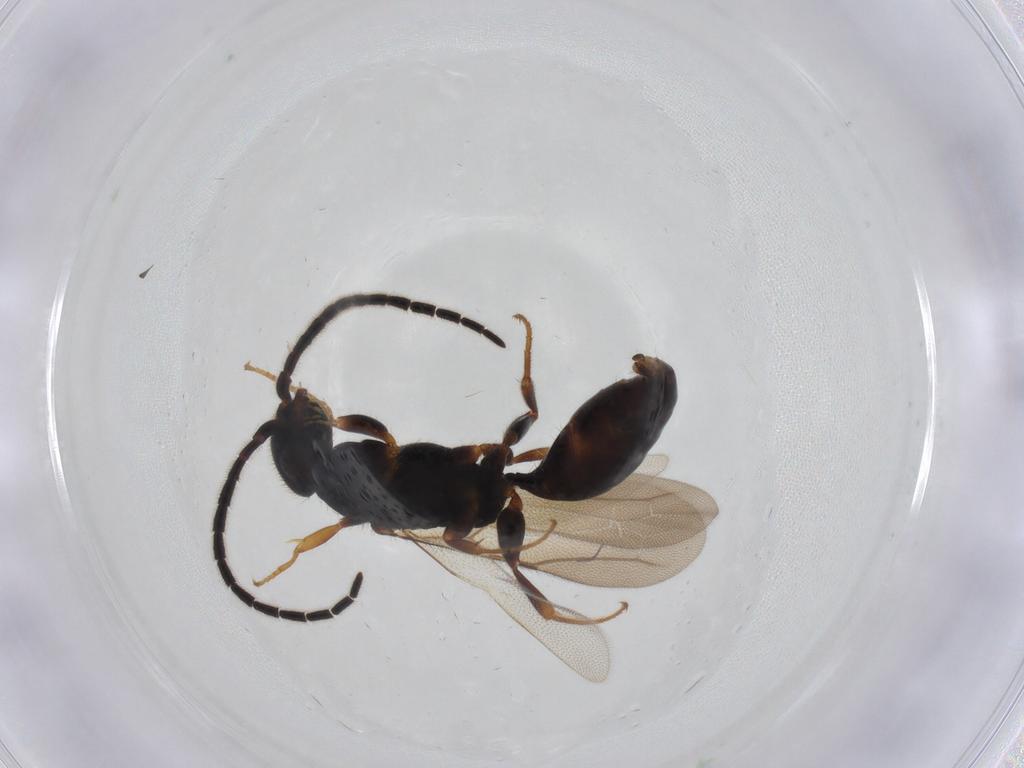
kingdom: Animalia
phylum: Arthropoda
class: Insecta
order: Hymenoptera
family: Bethylidae
